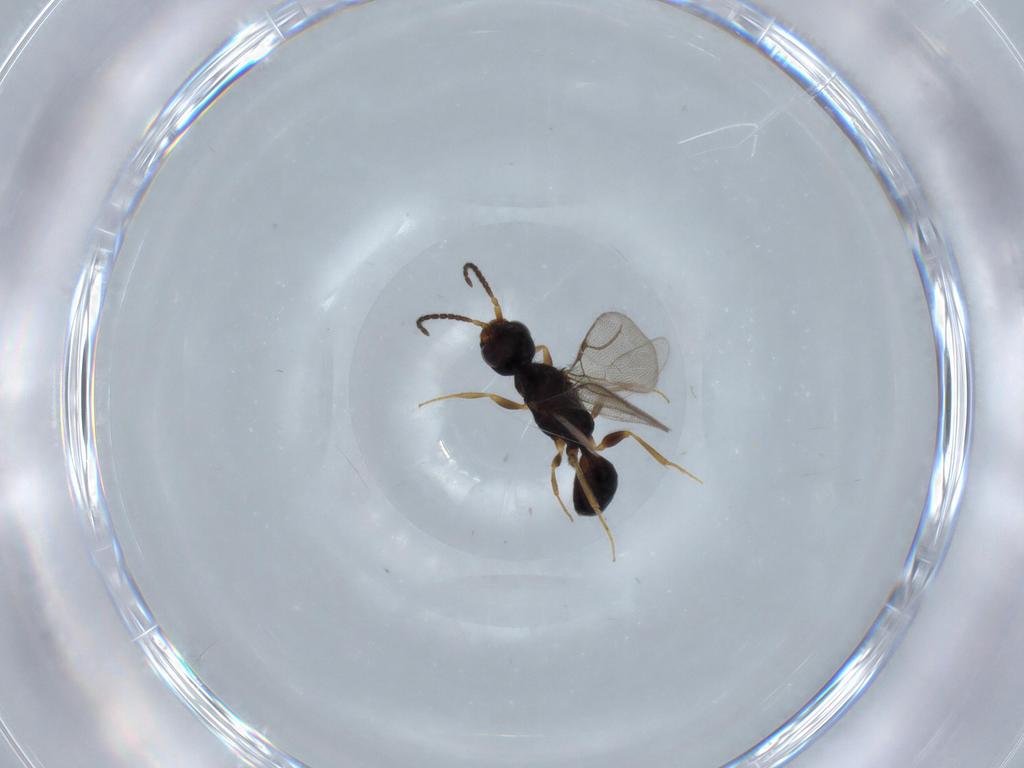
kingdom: Animalia
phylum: Arthropoda
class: Insecta
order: Hymenoptera
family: Bethylidae
